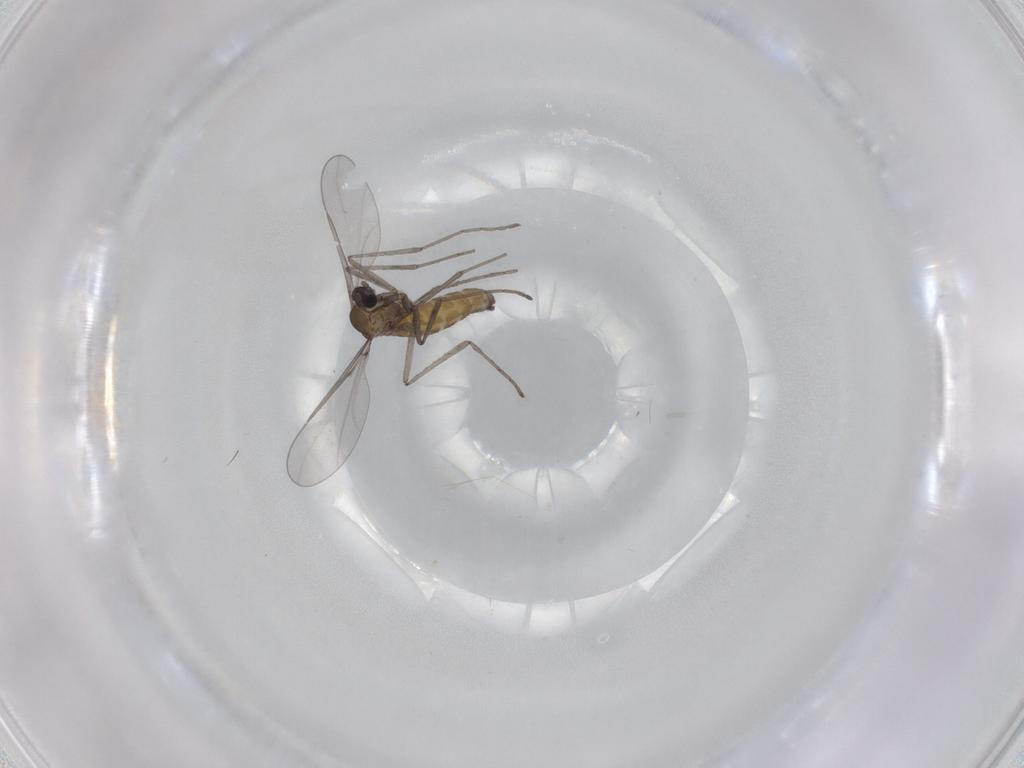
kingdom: Animalia
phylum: Arthropoda
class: Insecta
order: Diptera
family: Cecidomyiidae
